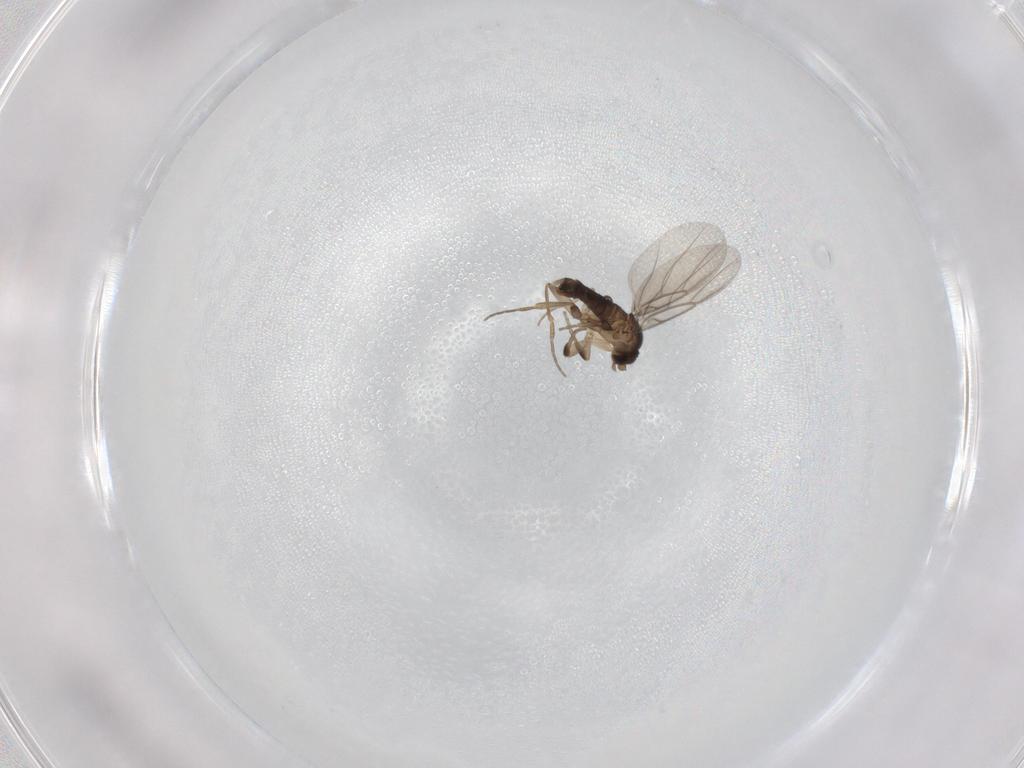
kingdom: Animalia
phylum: Arthropoda
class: Insecta
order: Diptera
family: Phoridae
